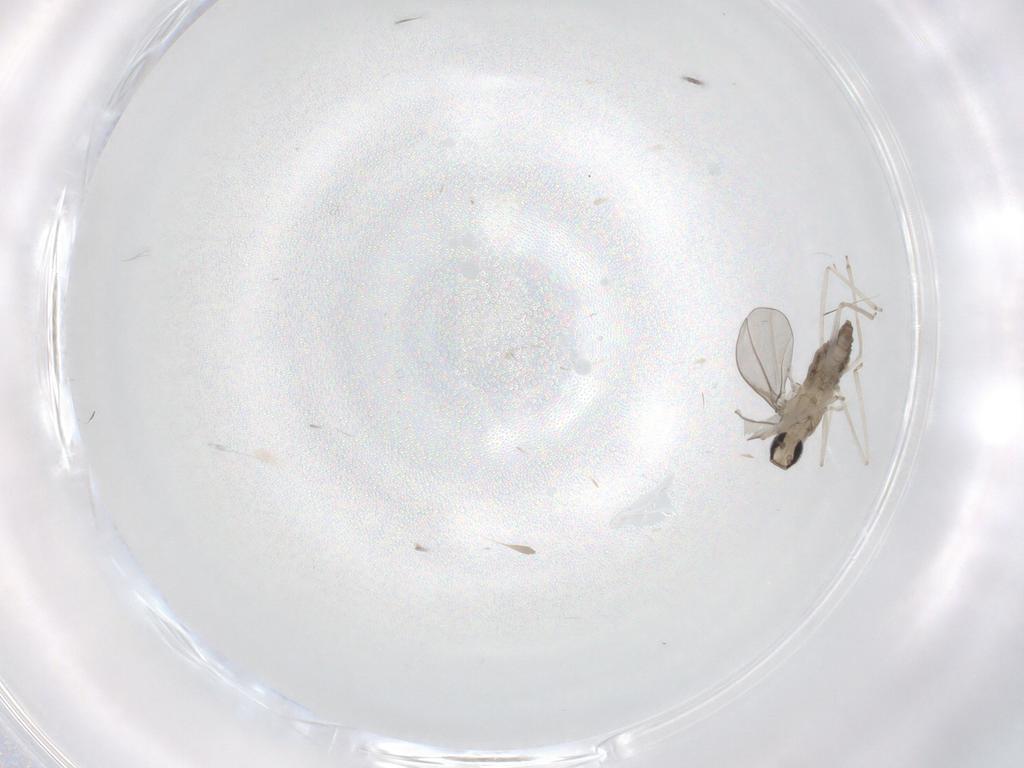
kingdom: Animalia
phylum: Arthropoda
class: Insecta
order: Diptera
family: Cecidomyiidae
